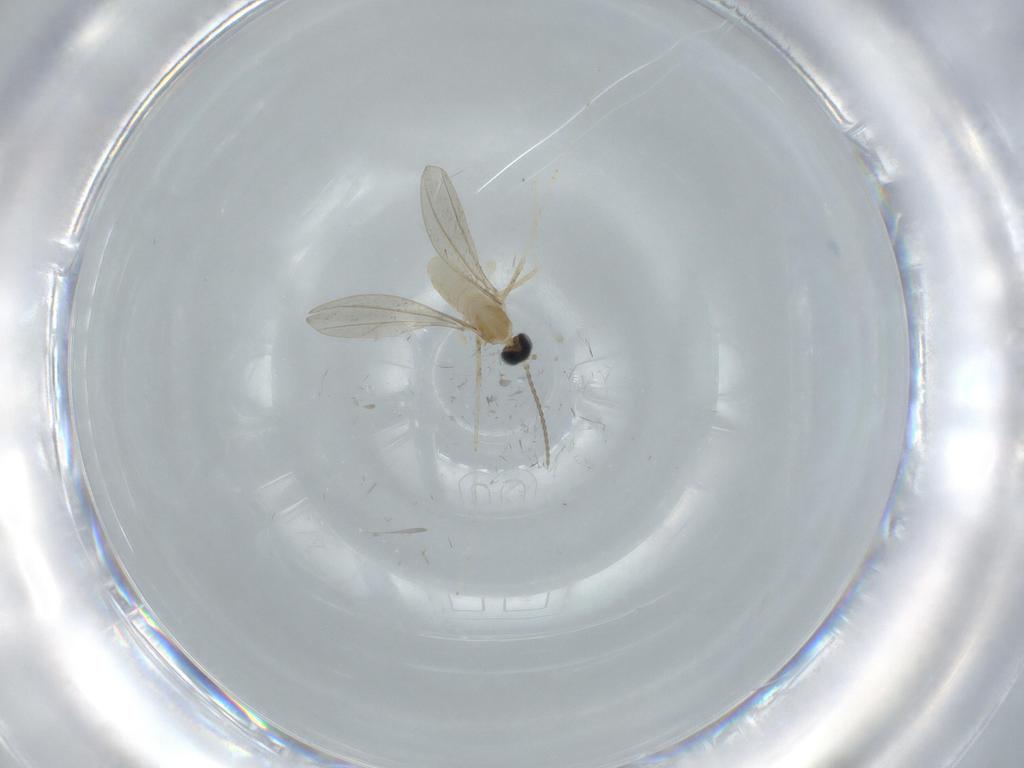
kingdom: Animalia
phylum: Arthropoda
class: Insecta
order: Diptera
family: Cecidomyiidae
